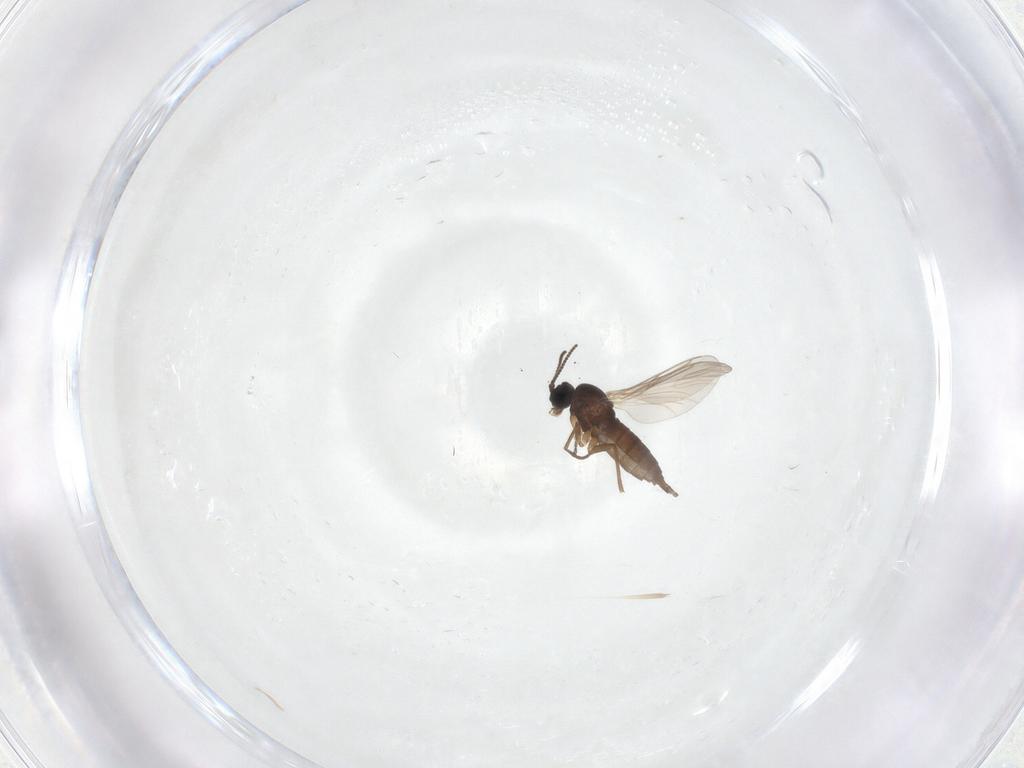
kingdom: Animalia
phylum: Arthropoda
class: Insecta
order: Diptera
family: Sciaridae
